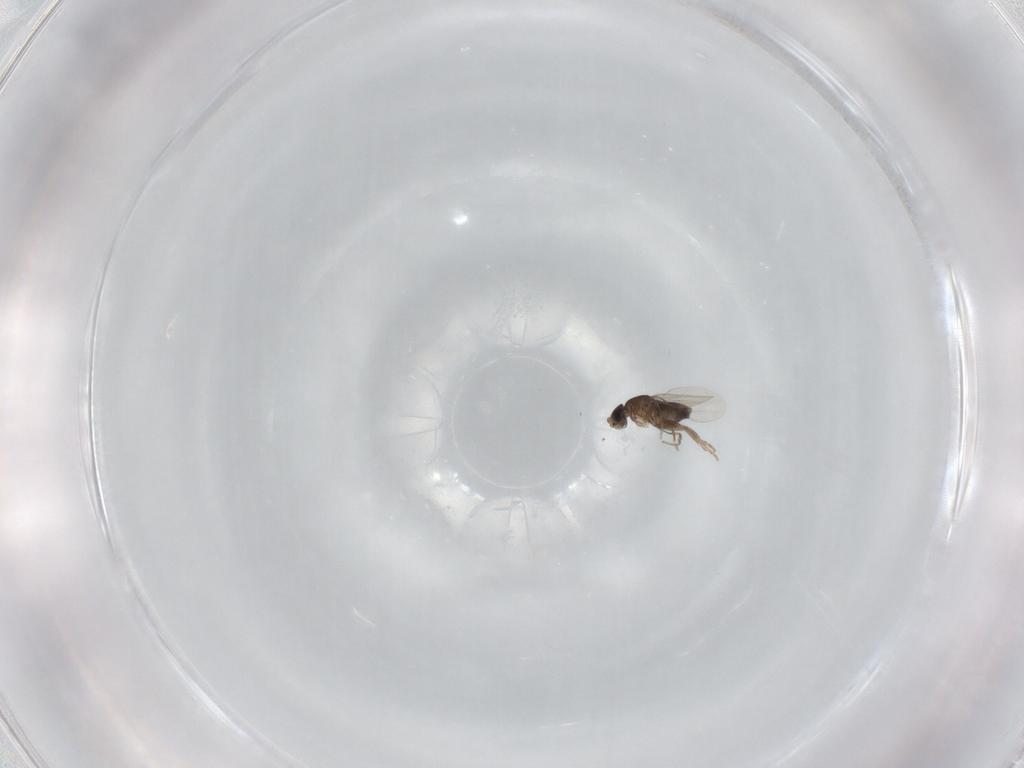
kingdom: Animalia
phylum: Arthropoda
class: Insecta
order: Diptera
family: Phoridae
